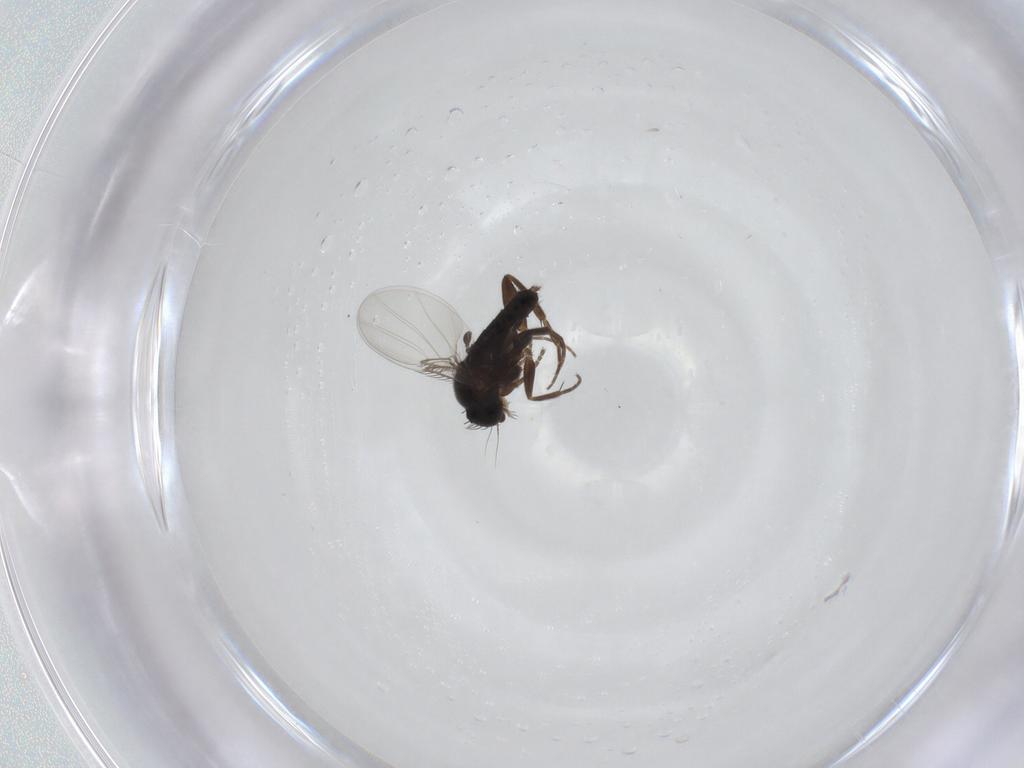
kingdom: Animalia
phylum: Arthropoda
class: Insecta
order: Diptera
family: Phoridae
